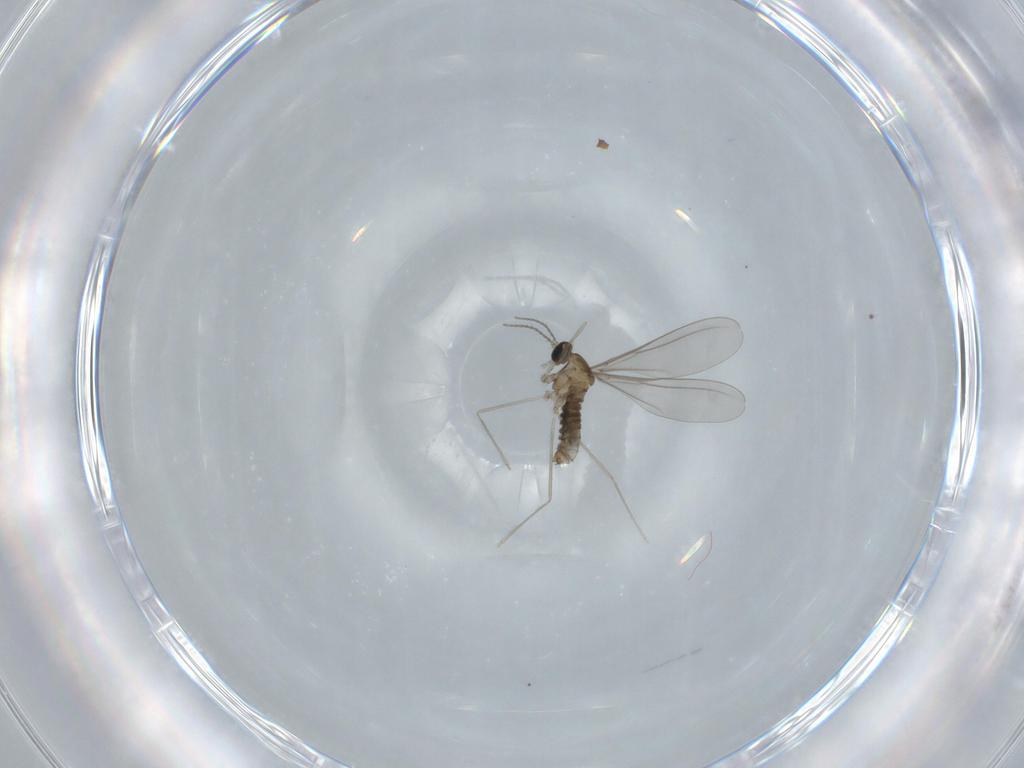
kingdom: Animalia
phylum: Arthropoda
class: Insecta
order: Diptera
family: Cecidomyiidae
